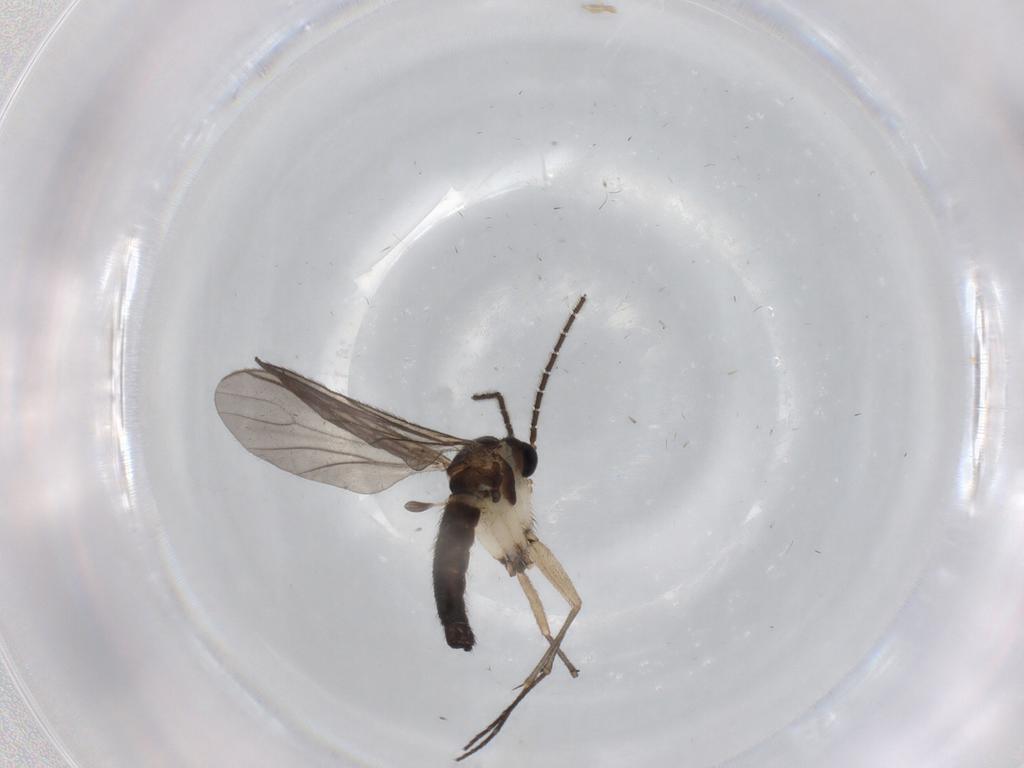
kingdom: Animalia
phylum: Arthropoda
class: Insecta
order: Diptera
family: Sciaridae
